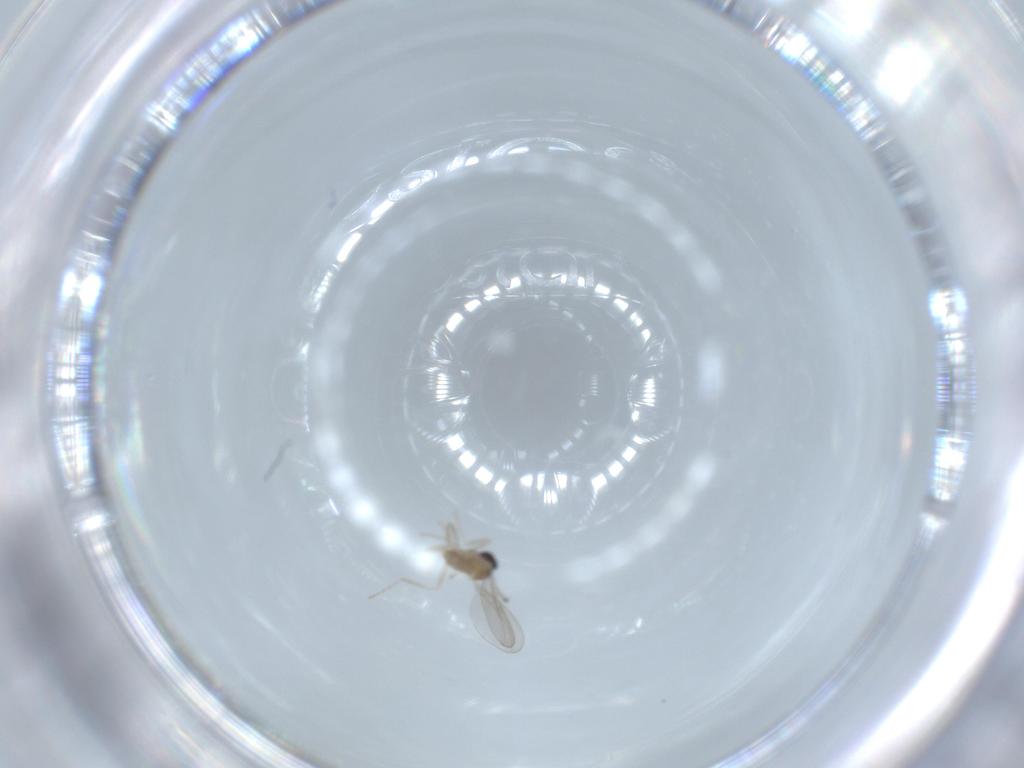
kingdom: Animalia
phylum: Arthropoda
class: Insecta
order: Diptera
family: Cecidomyiidae
